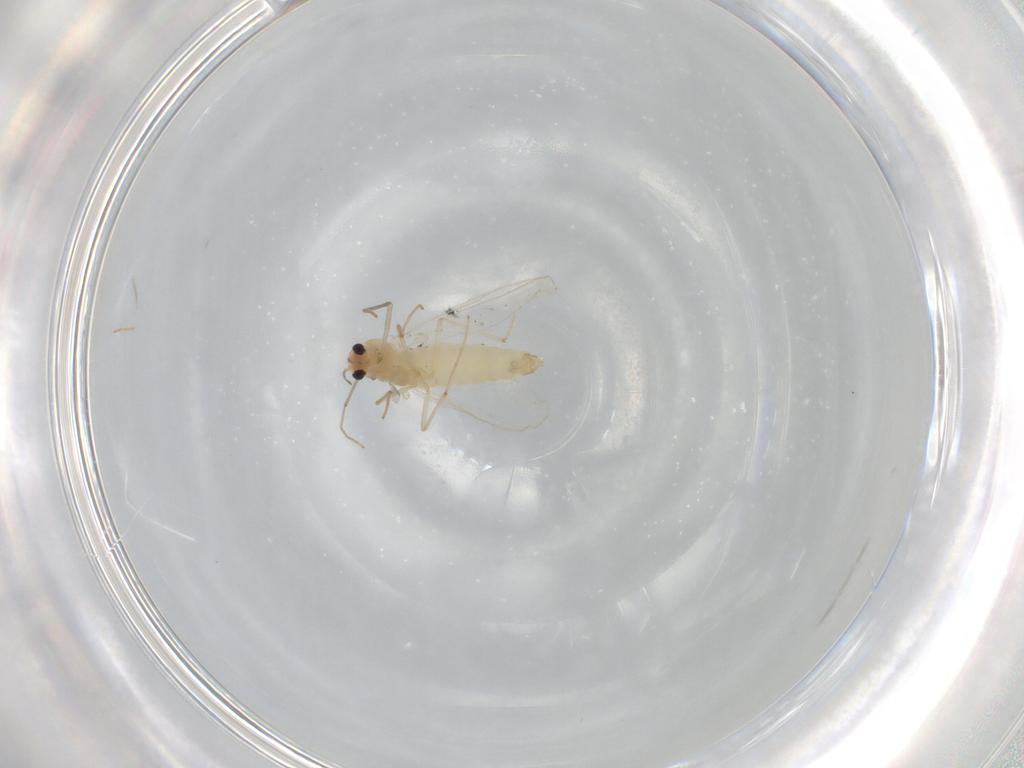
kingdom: Animalia
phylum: Arthropoda
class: Insecta
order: Diptera
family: Chironomidae
